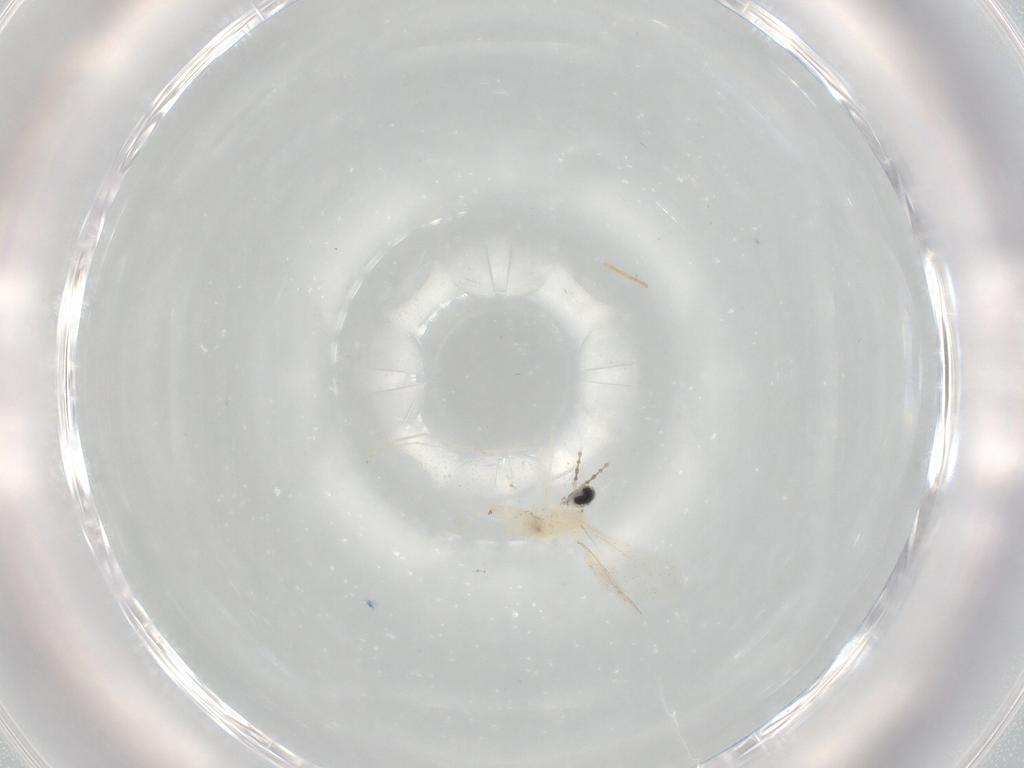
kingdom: Animalia
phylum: Arthropoda
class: Insecta
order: Diptera
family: Cecidomyiidae
